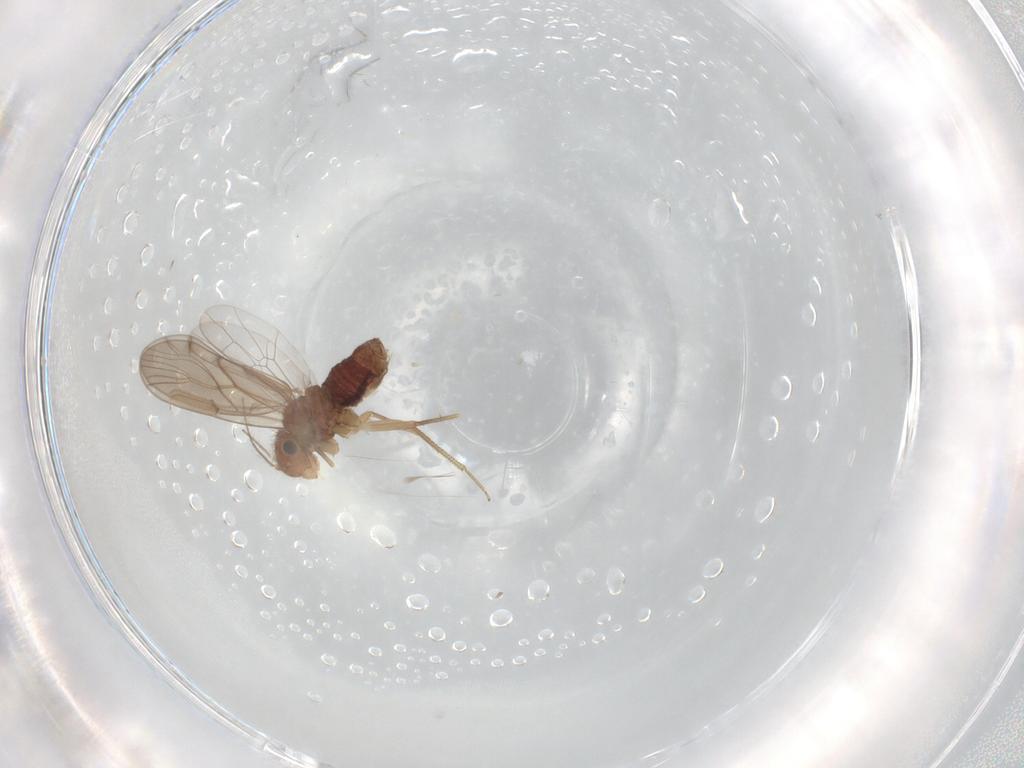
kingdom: Animalia
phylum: Arthropoda
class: Insecta
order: Psocodea
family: Ectopsocidae
